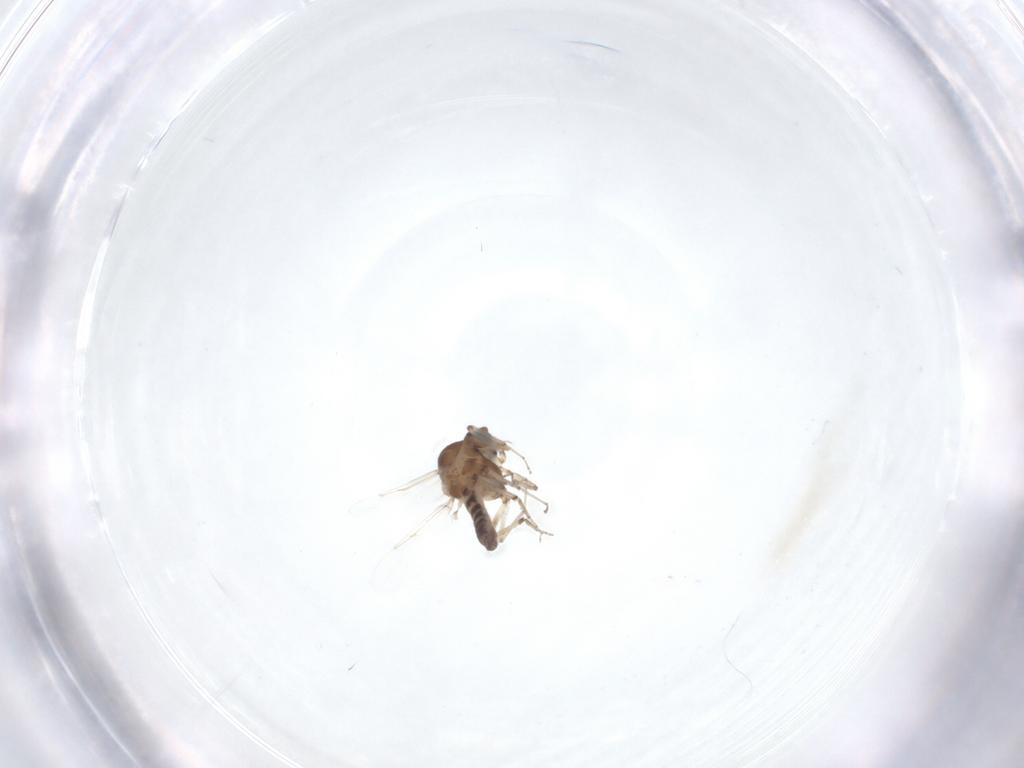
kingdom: Animalia
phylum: Arthropoda
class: Insecta
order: Diptera
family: Ceratopogonidae
